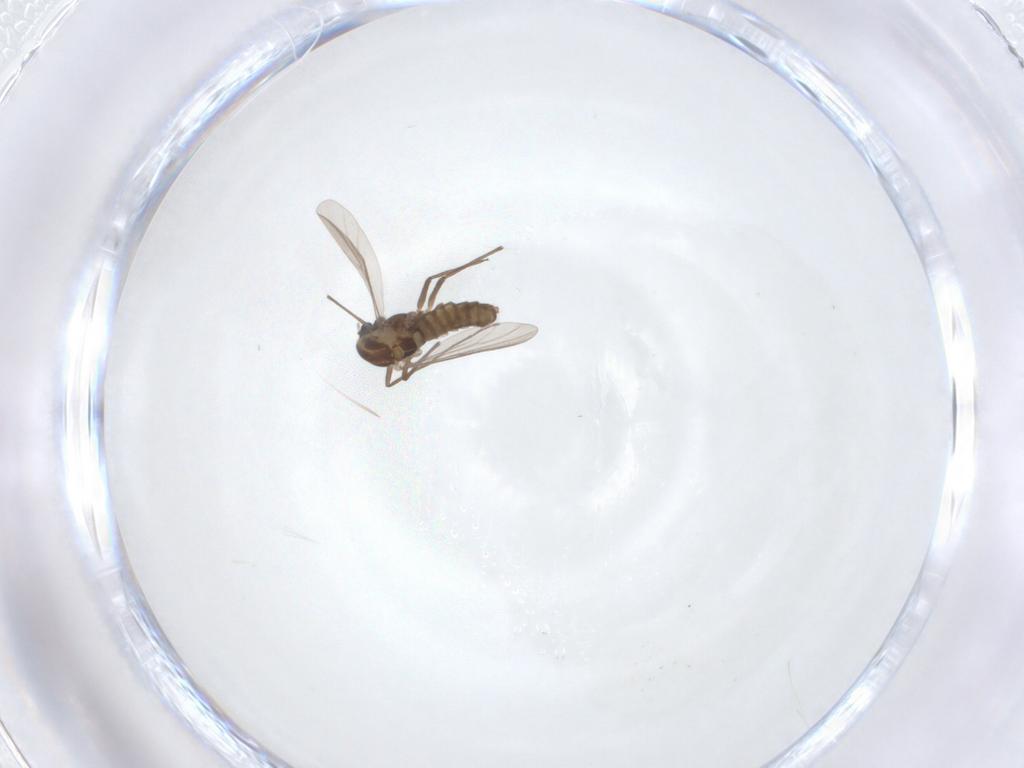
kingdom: Animalia
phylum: Arthropoda
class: Insecta
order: Diptera
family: Chironomidae
